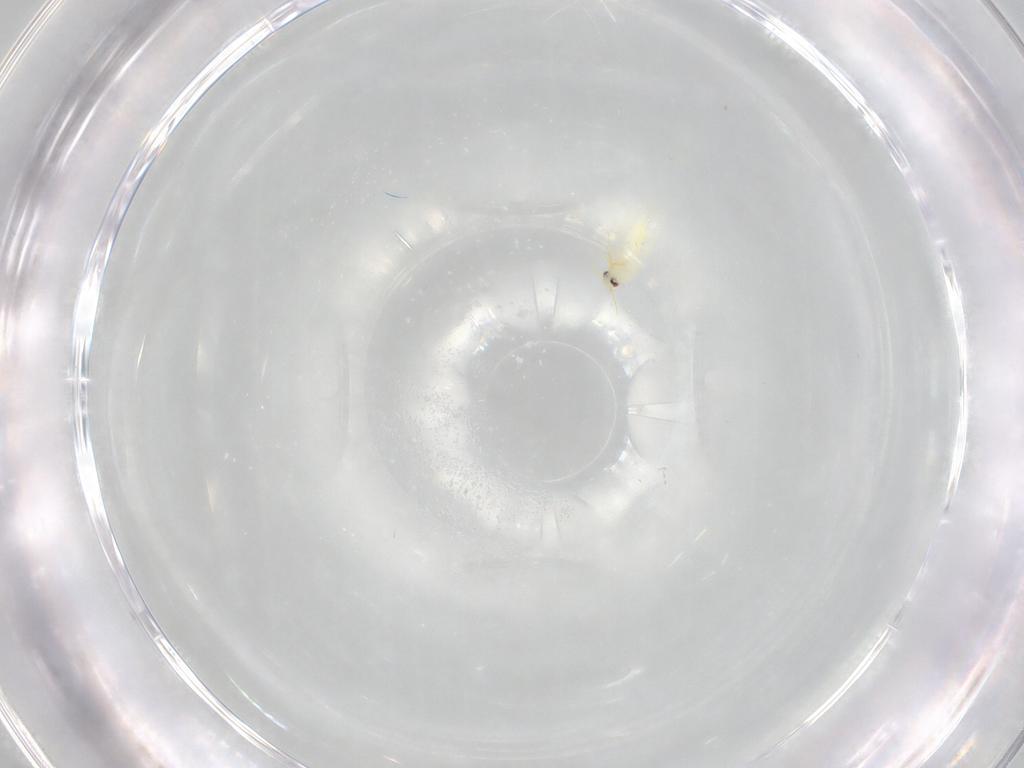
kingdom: Animalia
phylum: Arthropoda
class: Insecta
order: Diptera
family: Cecidomyiidae
